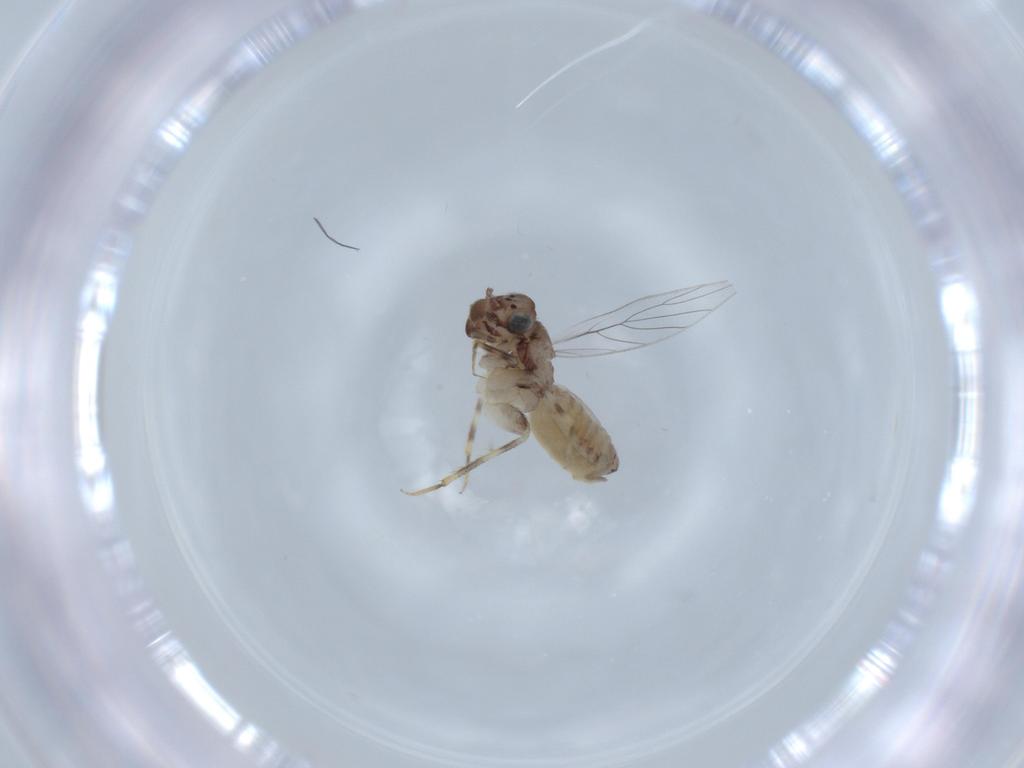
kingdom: Animalia
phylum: Arthropoda
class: Insecta
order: Psocodea
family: Lepidopsocidae
